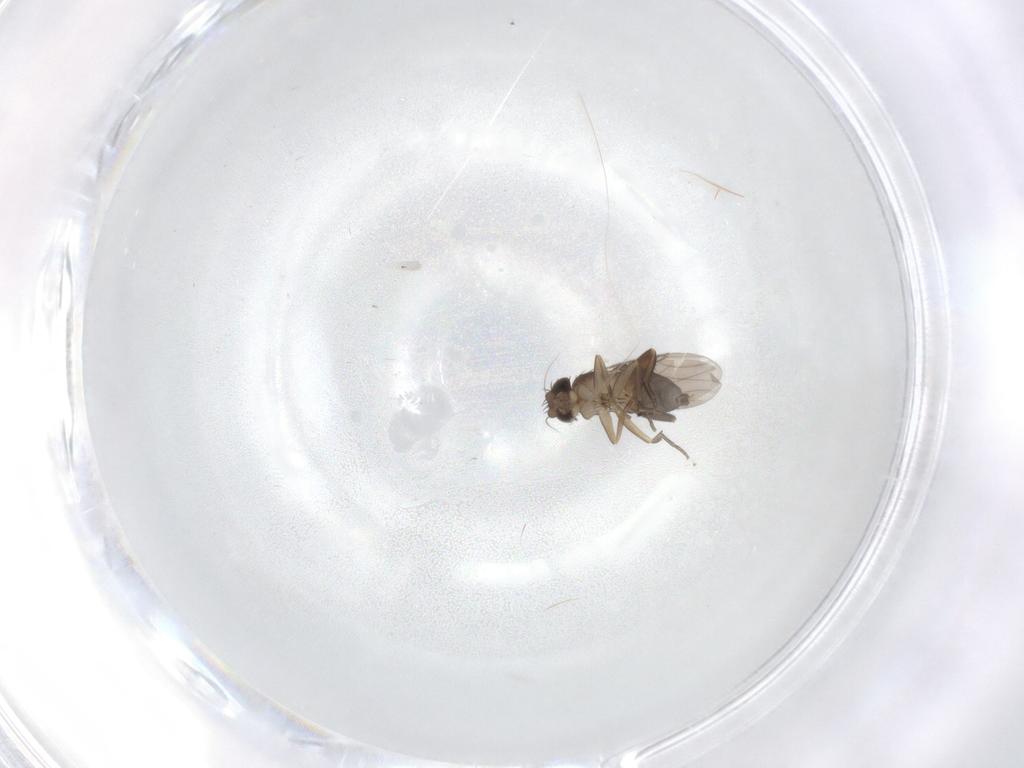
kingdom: Animalia
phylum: Arthropoda
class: Insecta
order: Diptera
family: Phoridae
